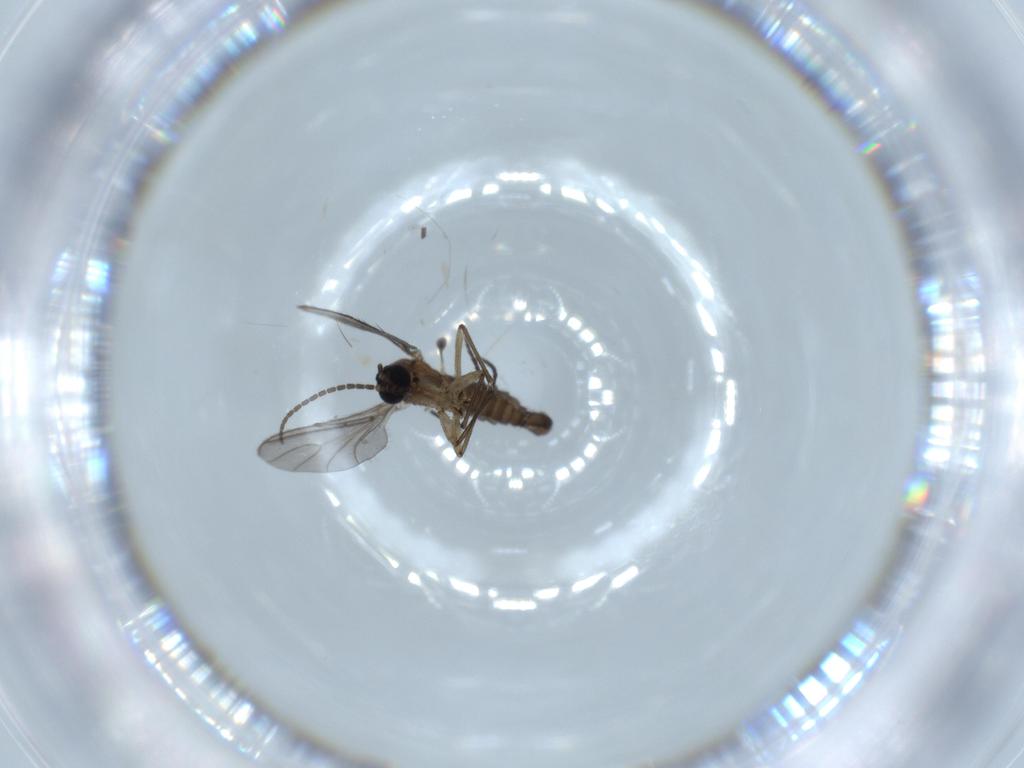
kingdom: Animalia
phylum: Arthropoda
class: Insecta
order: Diptera
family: Sciaridae
